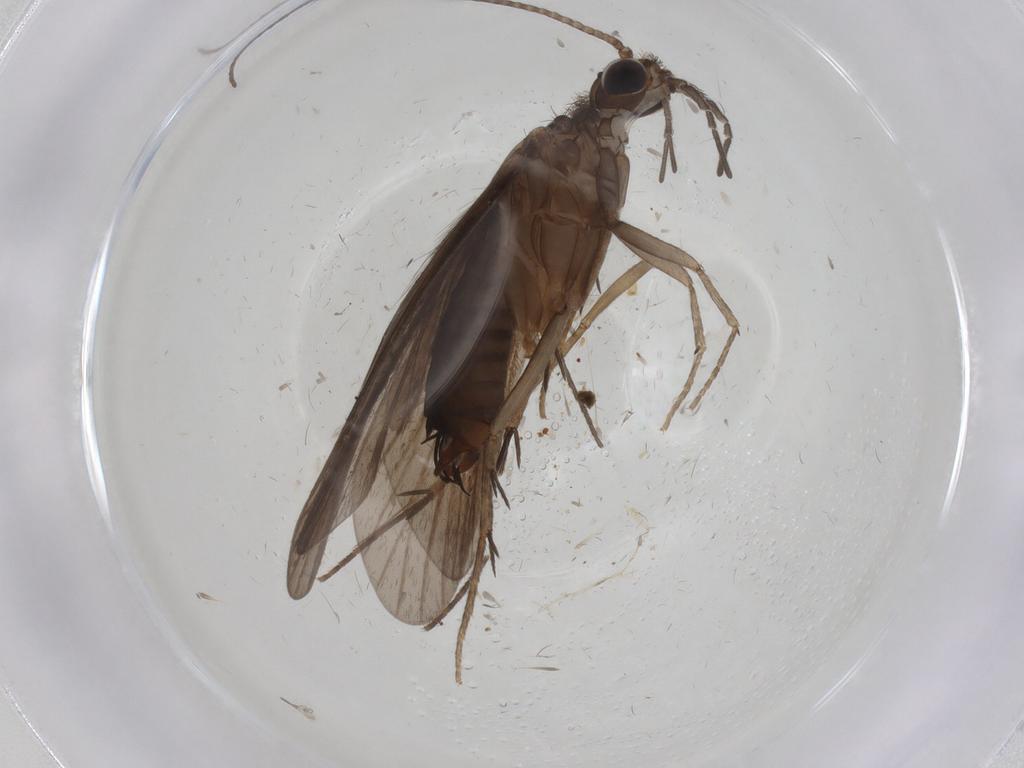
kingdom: Animalia
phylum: Arthropoda
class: Insecta
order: Trichoptera
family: Philopotamidae
